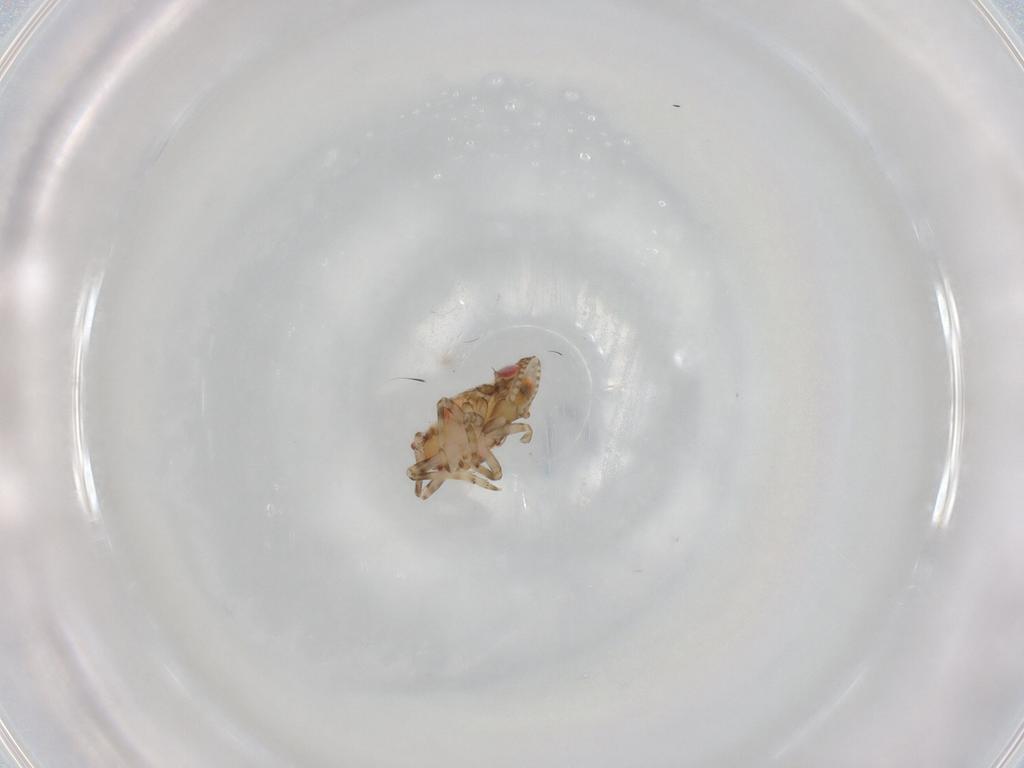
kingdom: Animalia
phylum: Arthropoda
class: Insecta
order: Hemiptera
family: Tropiduchidae
